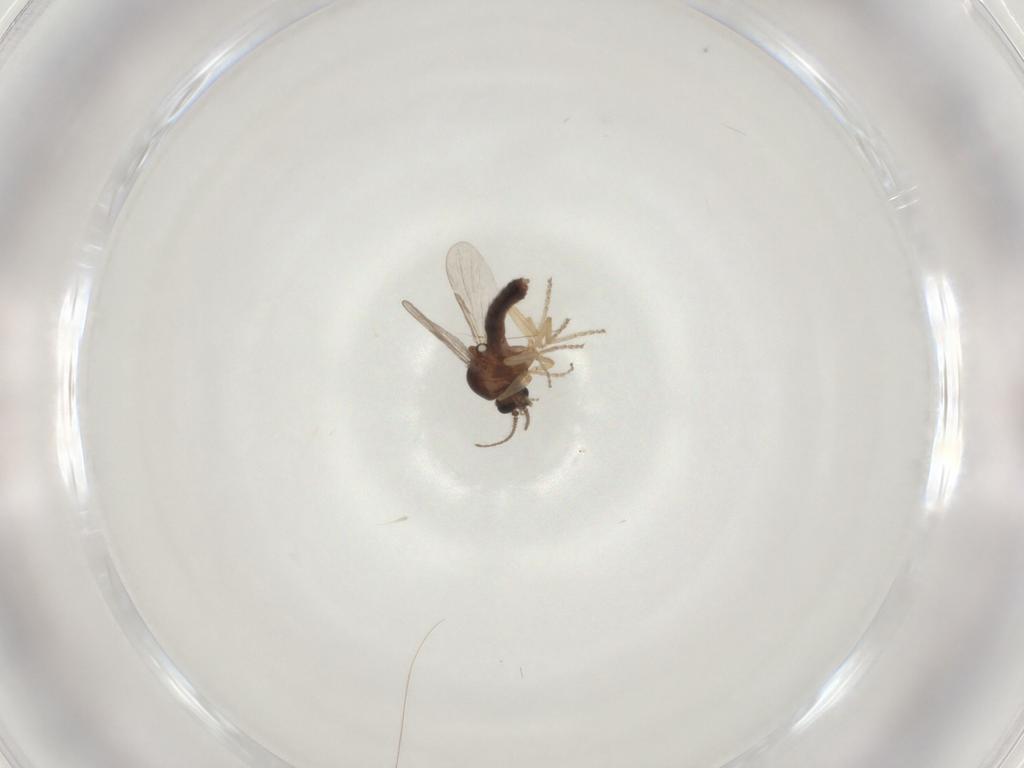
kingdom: Animalia
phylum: Arthropoda
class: Insecta
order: Diptera
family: Ceratopogonidae
